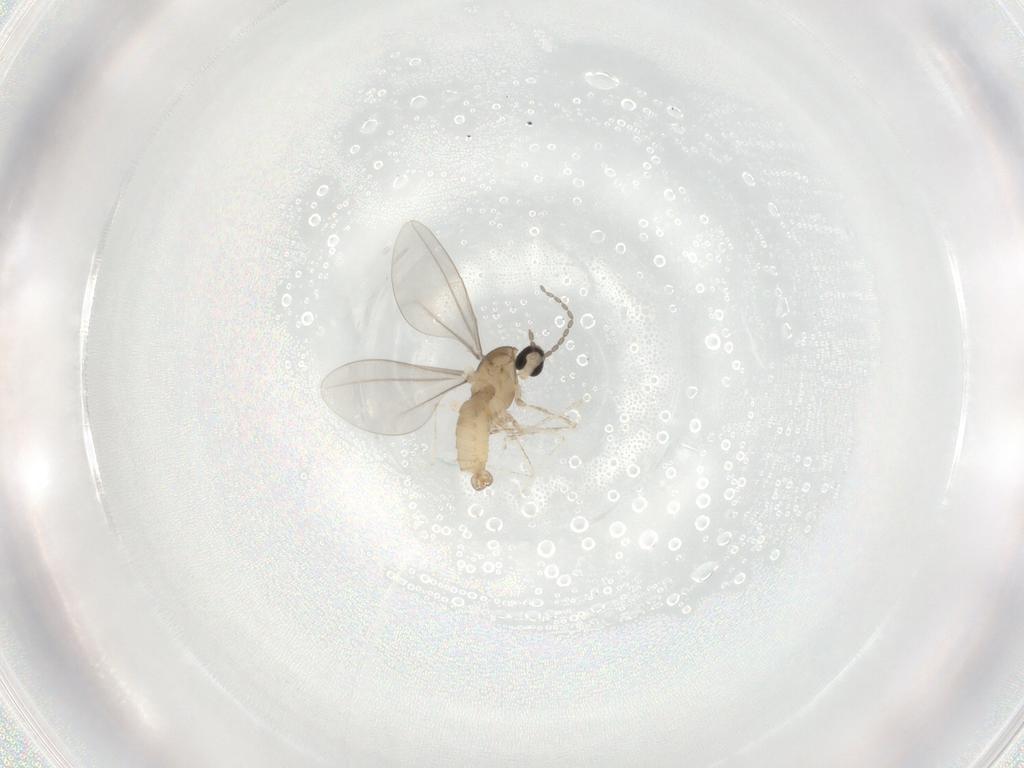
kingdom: Animalia
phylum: Arthropoda
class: Insecta
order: Diptera
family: Cecidomyiidae
